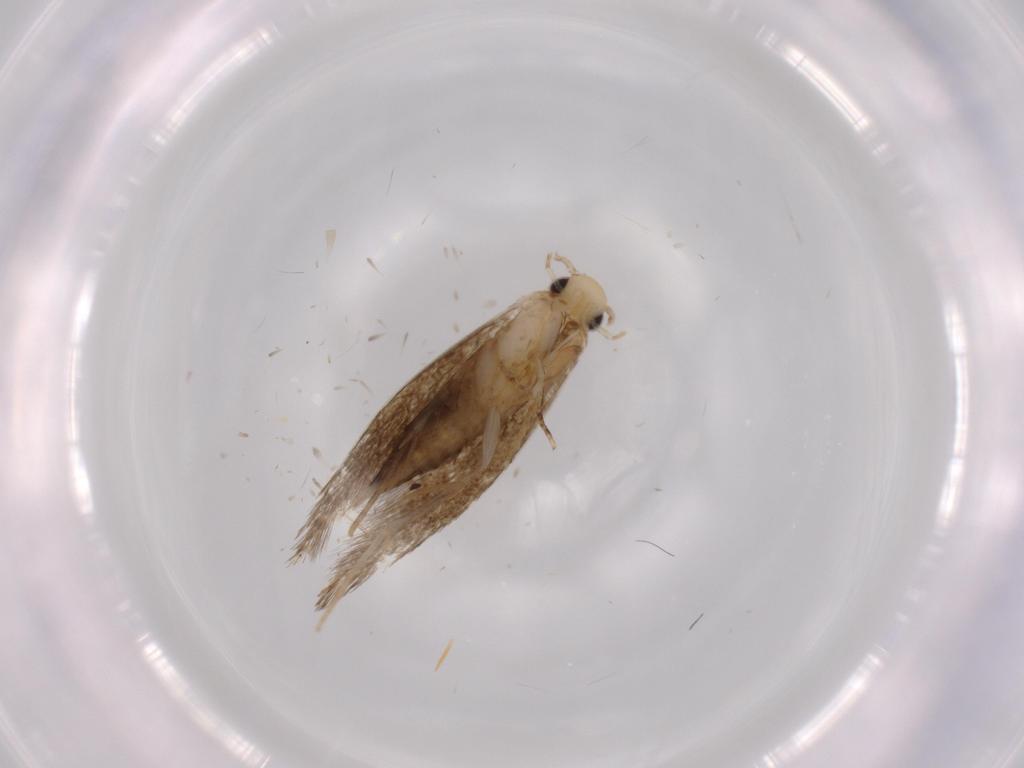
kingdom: Animalia
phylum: Arthropoda
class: Insecta
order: Lepidoptera
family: Tineidae
